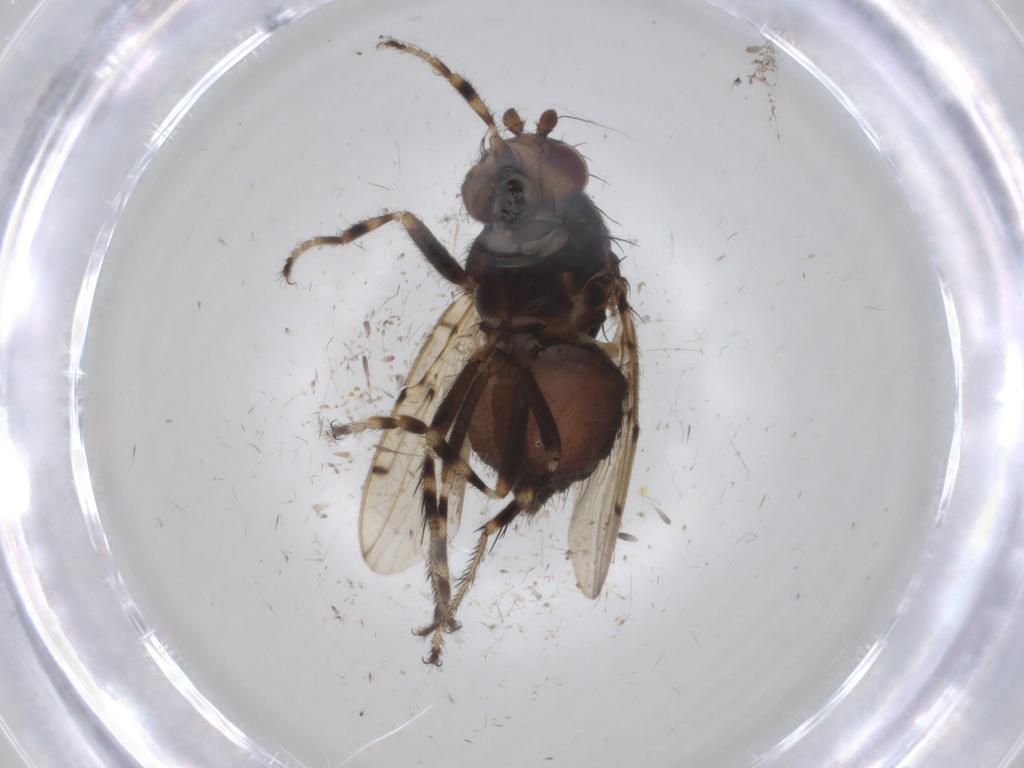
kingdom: Animalia
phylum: Arthropoda
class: Insecta
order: Diptera
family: Sphaeroceridae
